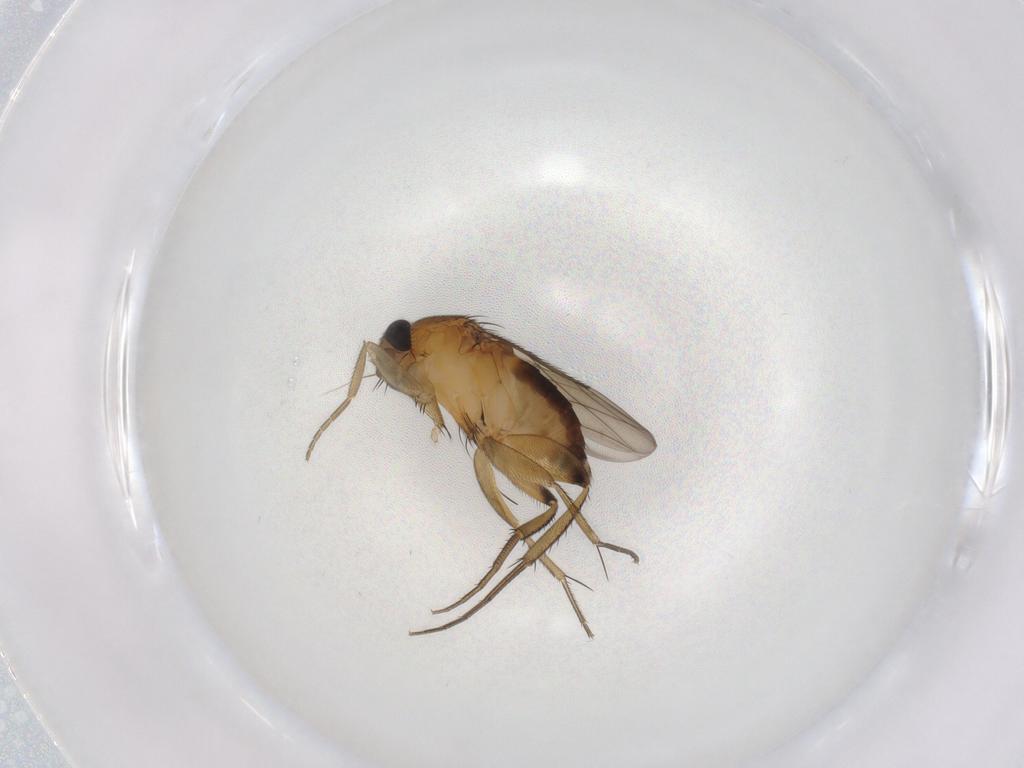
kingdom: Animalia
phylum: Arthropoda
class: Insecta
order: Diptera
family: Phoridae
